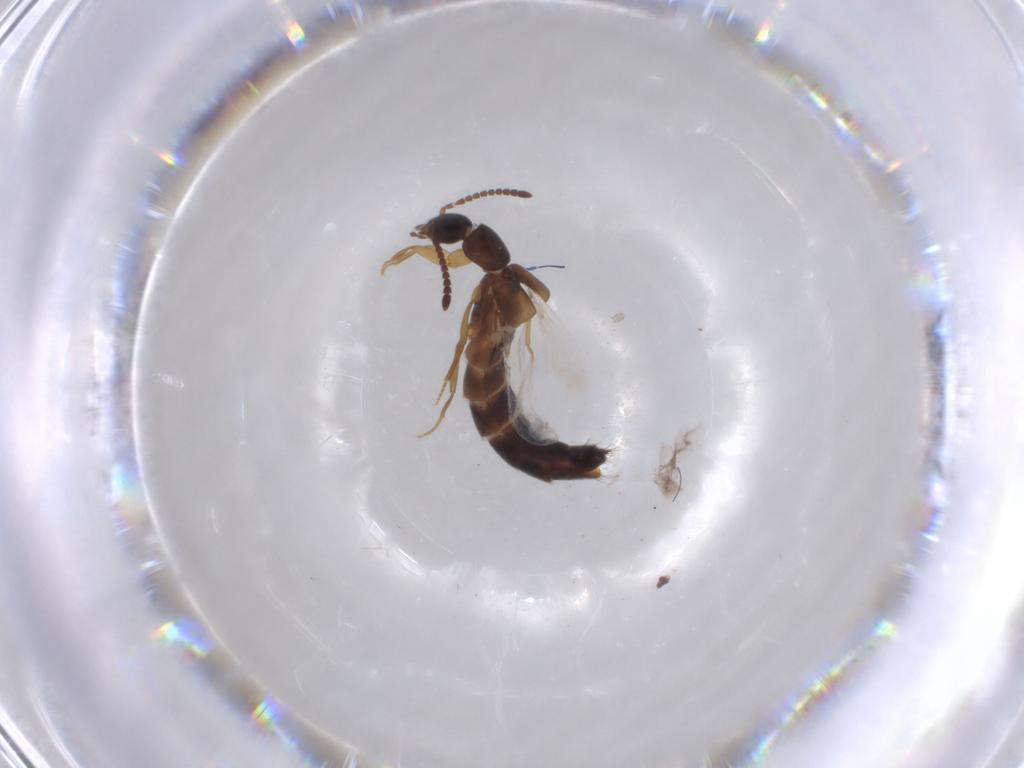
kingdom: Animalia
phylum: Arthropoda
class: Insecta
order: Coleoptera
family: Staphylinidae
